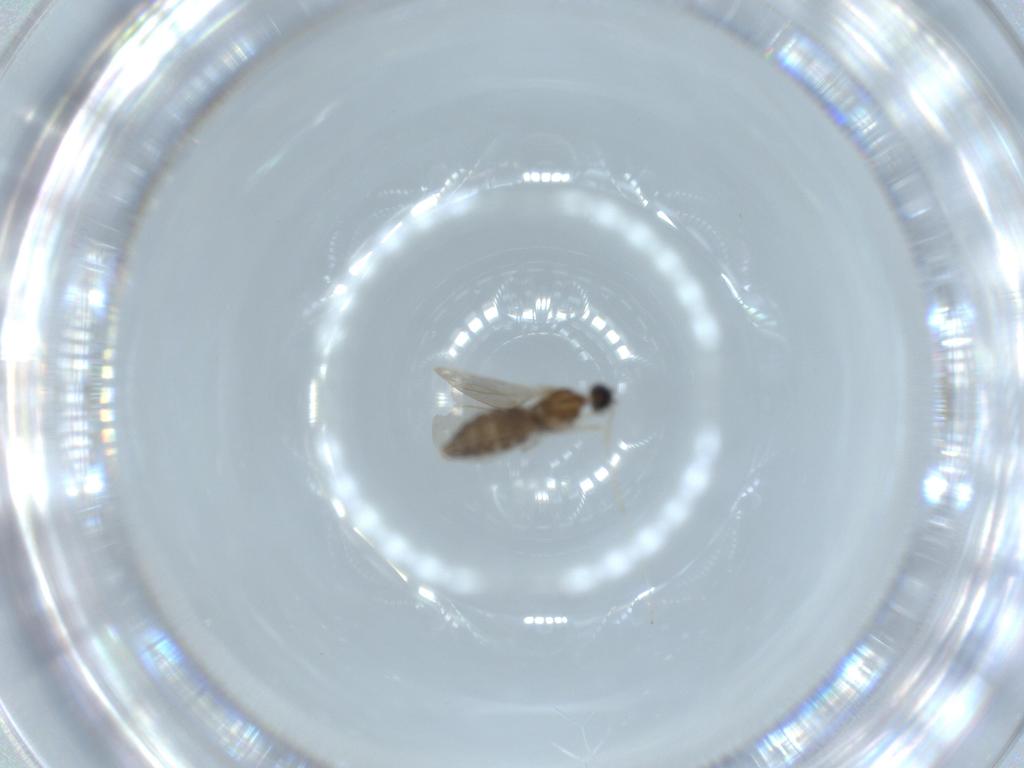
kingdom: Animalia
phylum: Arthropoda
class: Insecta
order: Diptera
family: Cecidomyiidae
